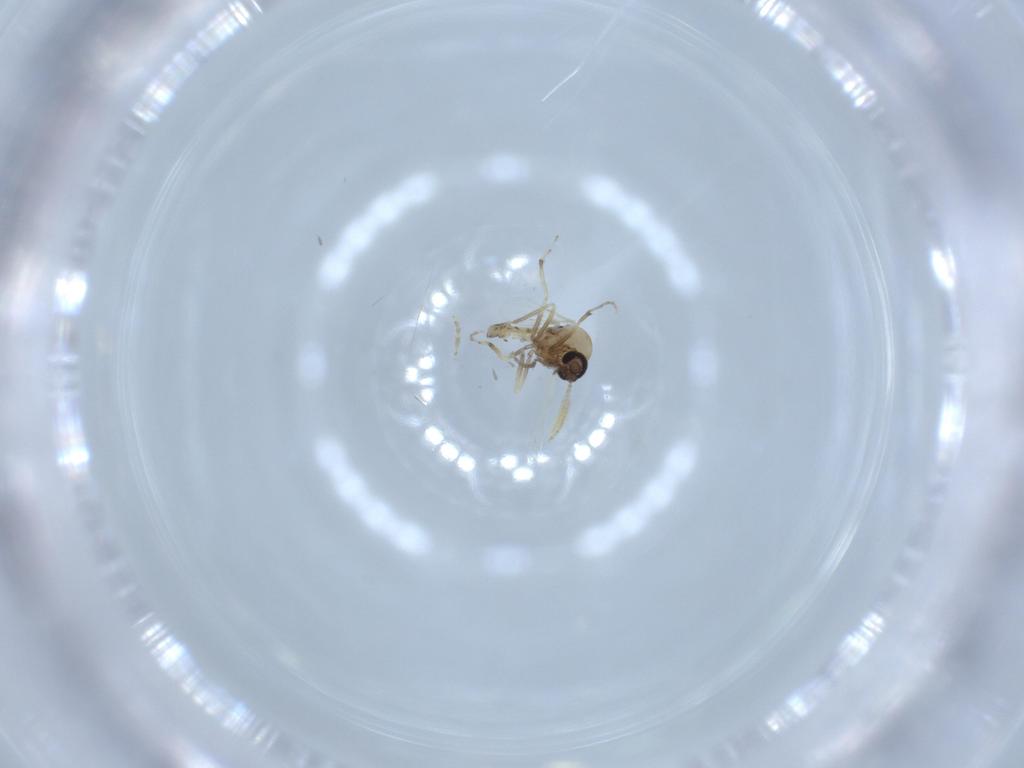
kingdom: Animalia
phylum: Arthropoda
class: Insecta
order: Diptera
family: Ceratopogonidae
